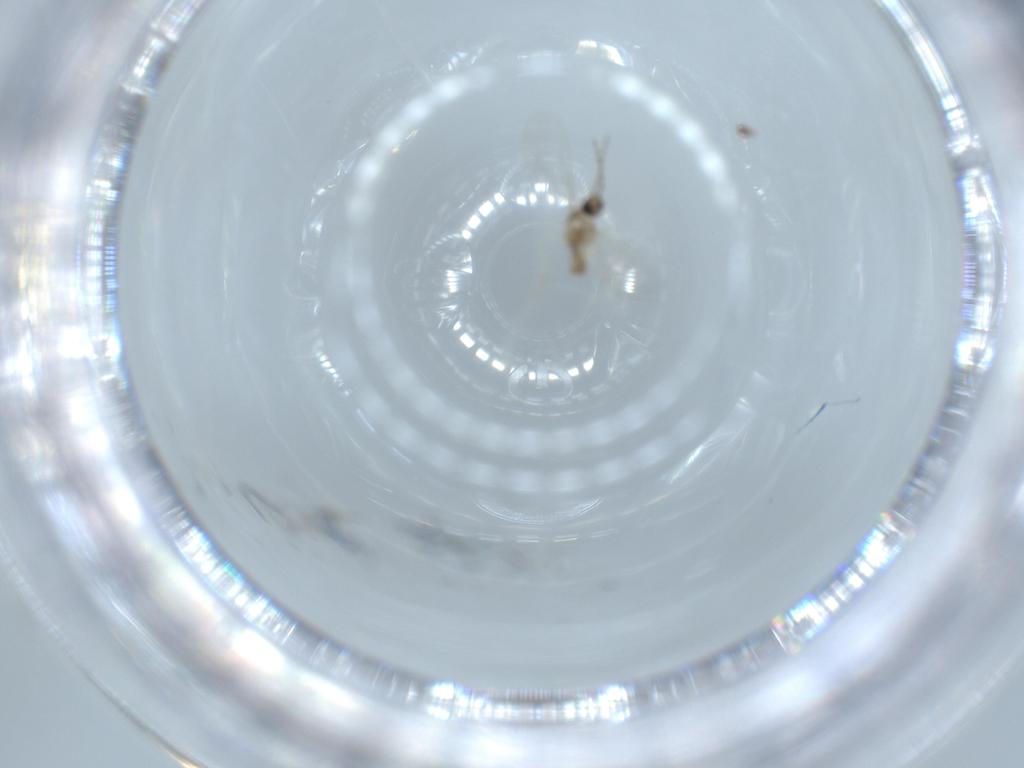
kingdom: Animalia
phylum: Arthropoda
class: Insecta
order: Diptera
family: Cecidomyiidae
